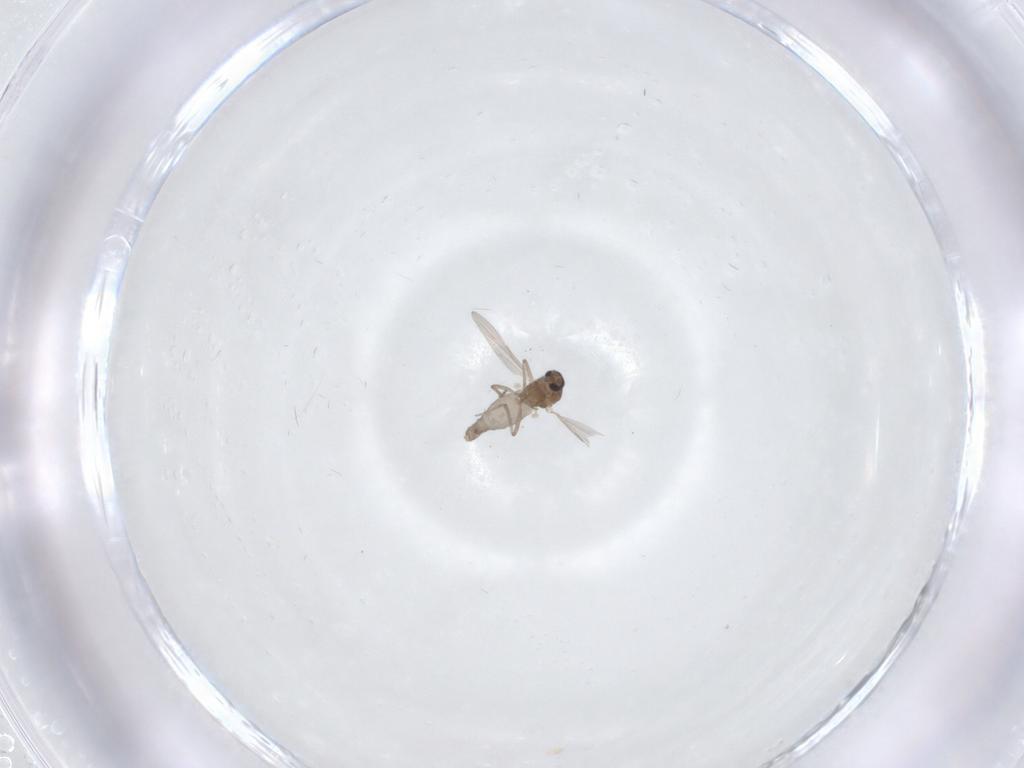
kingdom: Animalia
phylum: Arthropoda
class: Insecta
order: Diptera
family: Ceratopogonidae
